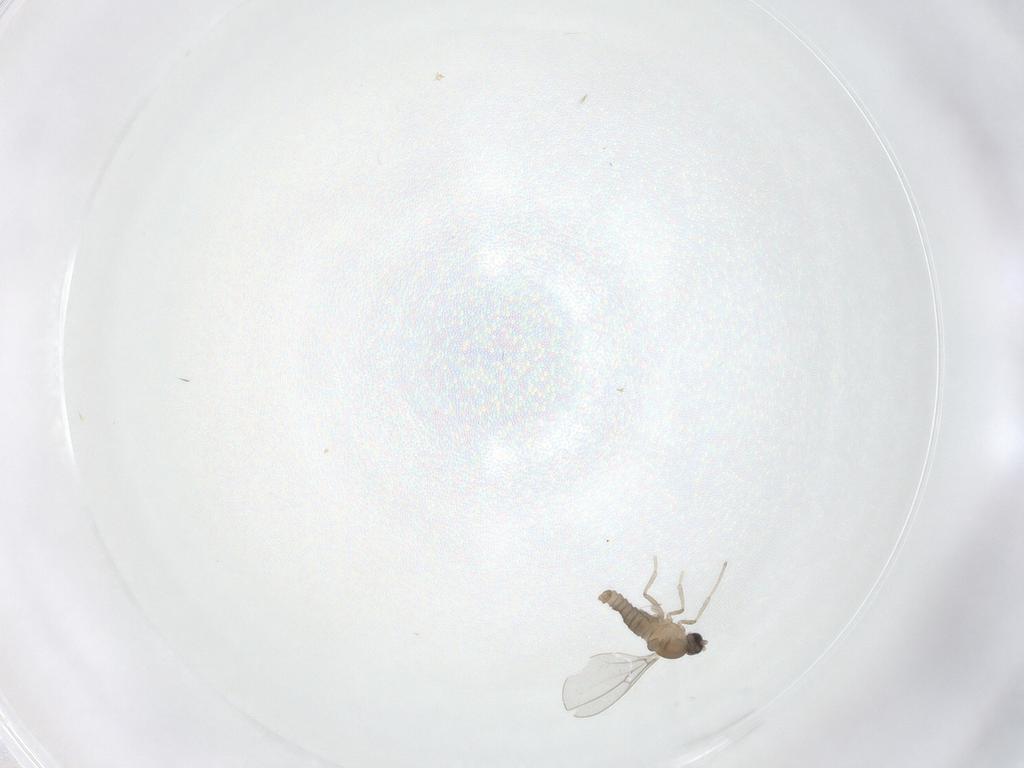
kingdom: Animalia
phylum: Arthropoda
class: Insecta
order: Diptera
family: Cecidomyiidae
